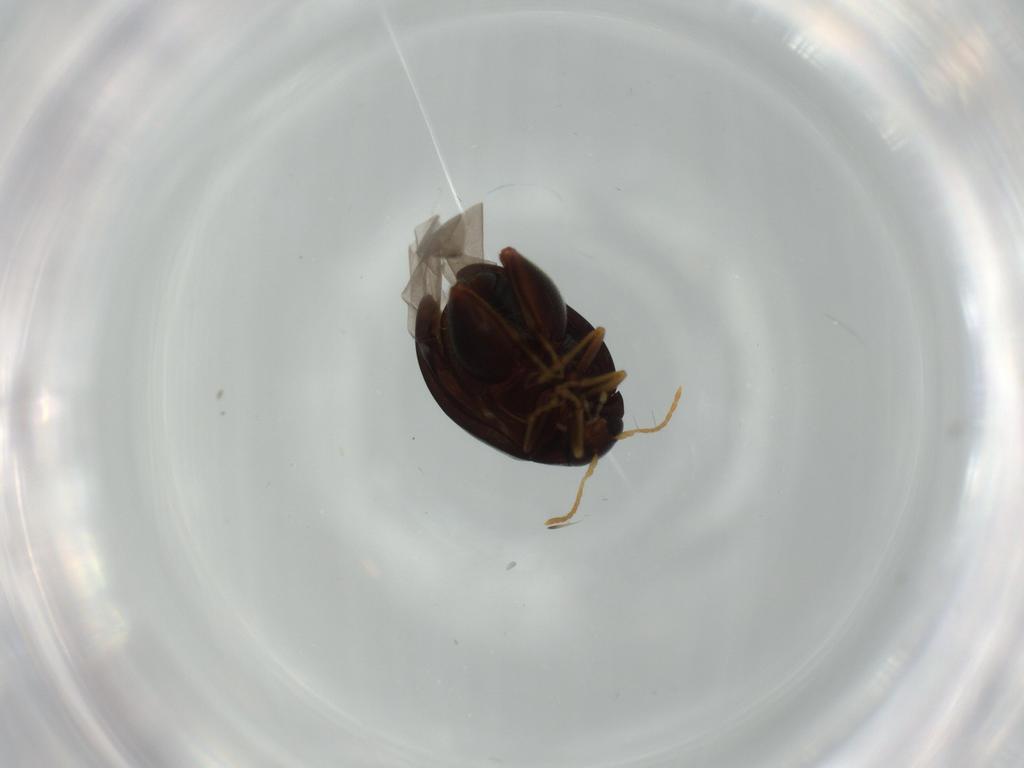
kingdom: Animalia
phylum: Arthropoda
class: Insecta
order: Coleoptera
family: Chrysomelidae
